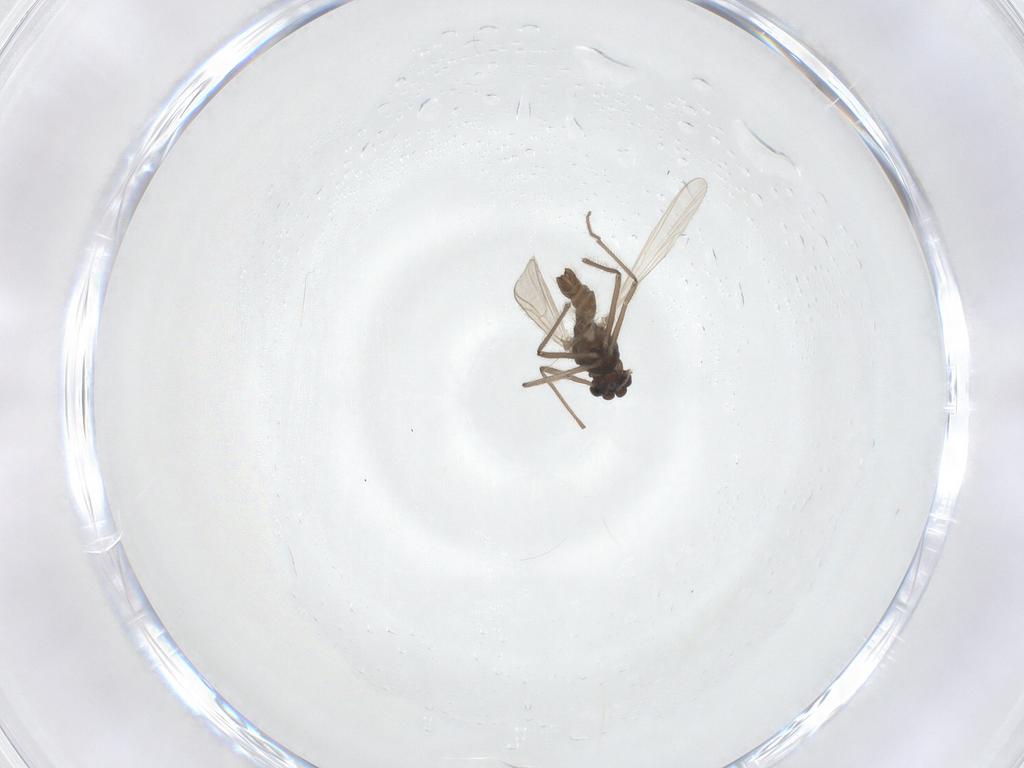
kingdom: Animalia
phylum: Arthropoda
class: Insecta
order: Diptera
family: Chironomidae
